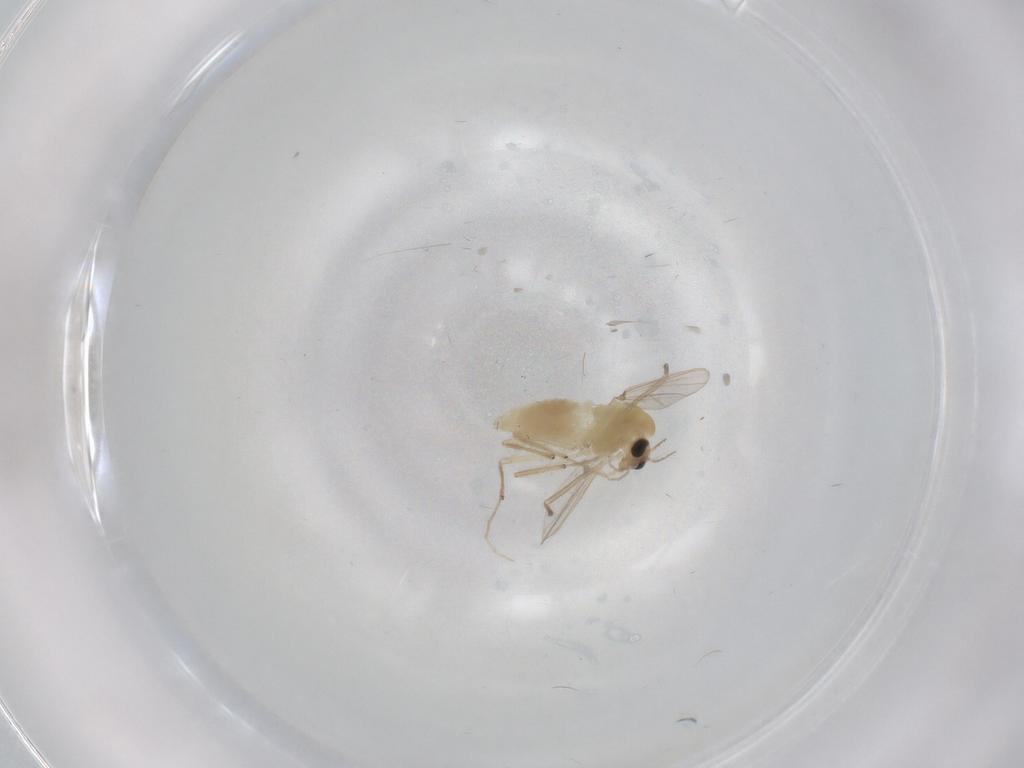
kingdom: Animalia
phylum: Arthropoda
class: Insecta
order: Diptera
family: Chironomidae
